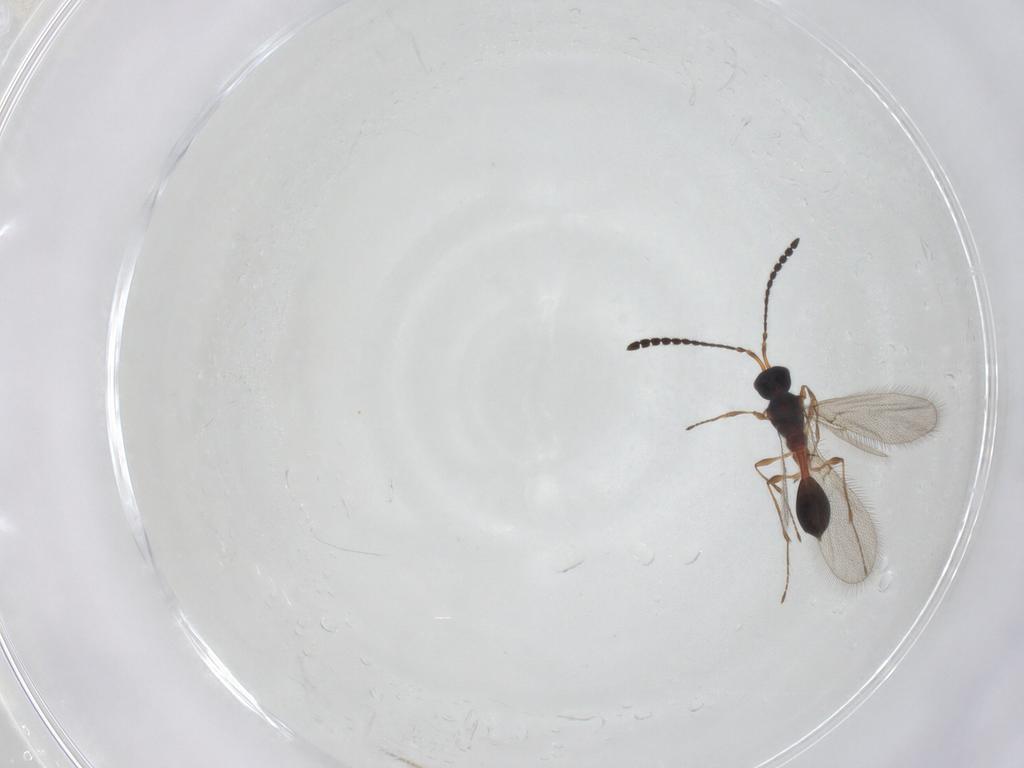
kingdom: Animalia
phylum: Arthropoda
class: Insecta
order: Hymenoptera
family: Diapriidae
